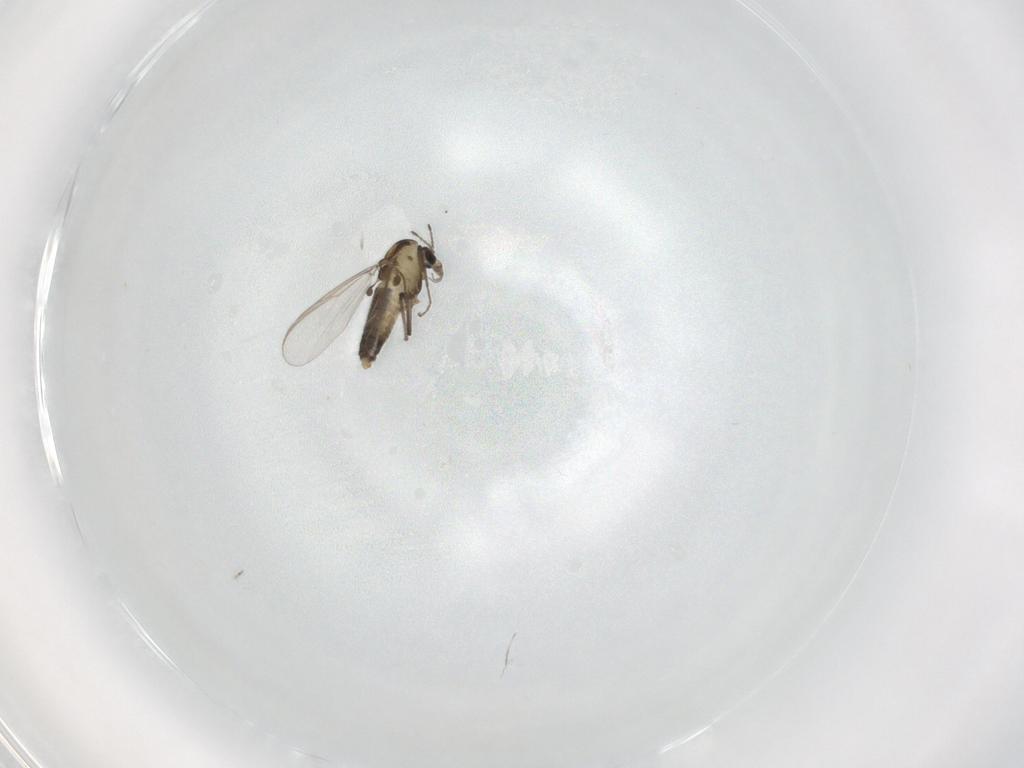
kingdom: Animalia
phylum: Arthropoda
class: Insecta
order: Diptera
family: Chironomidae
